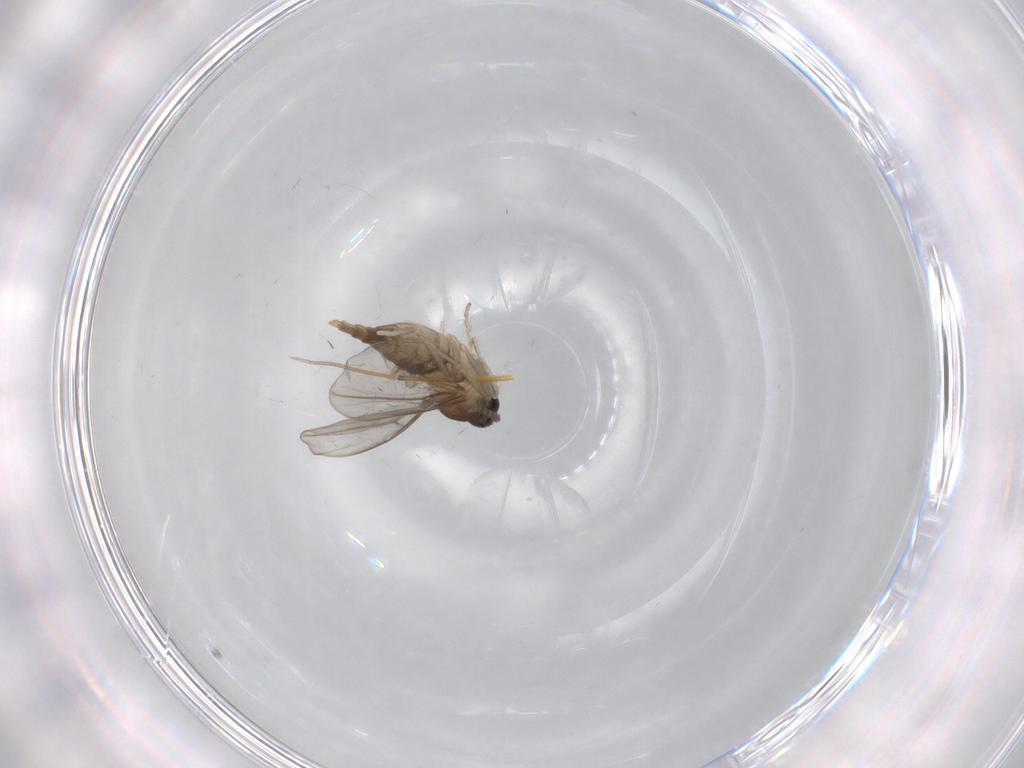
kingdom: Animalia
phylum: Arthropoda
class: Insecta
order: Diptera
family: Cecidomyiidae
